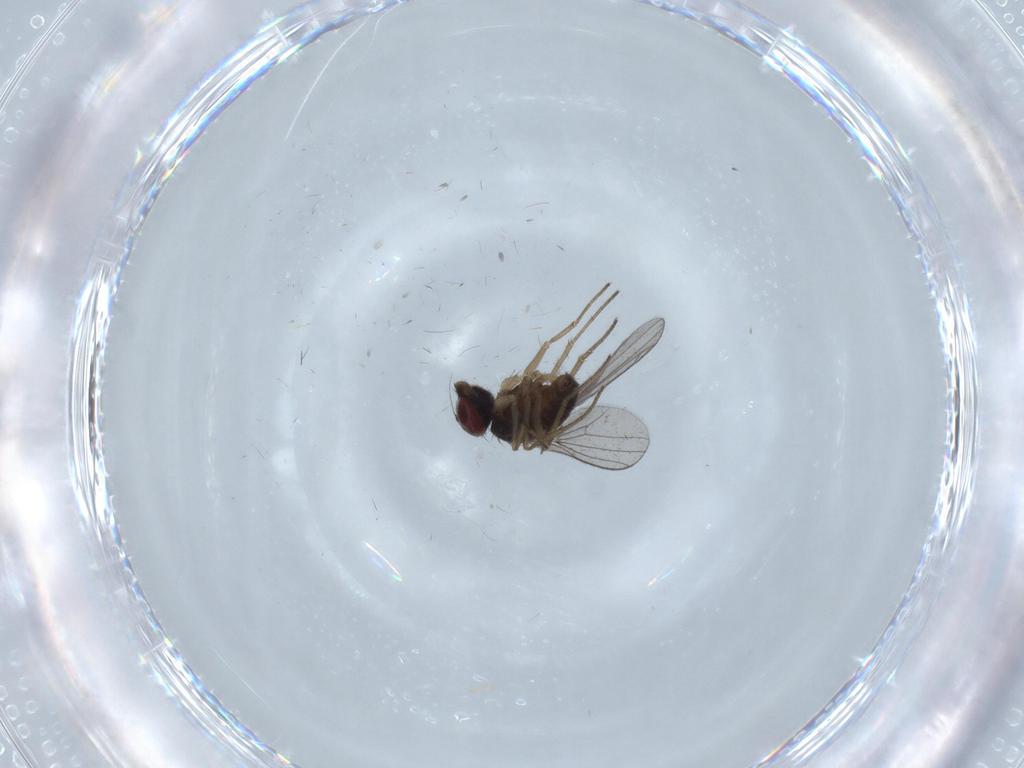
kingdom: Animalia
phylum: Arthropoda
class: Insecta
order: Diptera
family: Dolichopodidae
